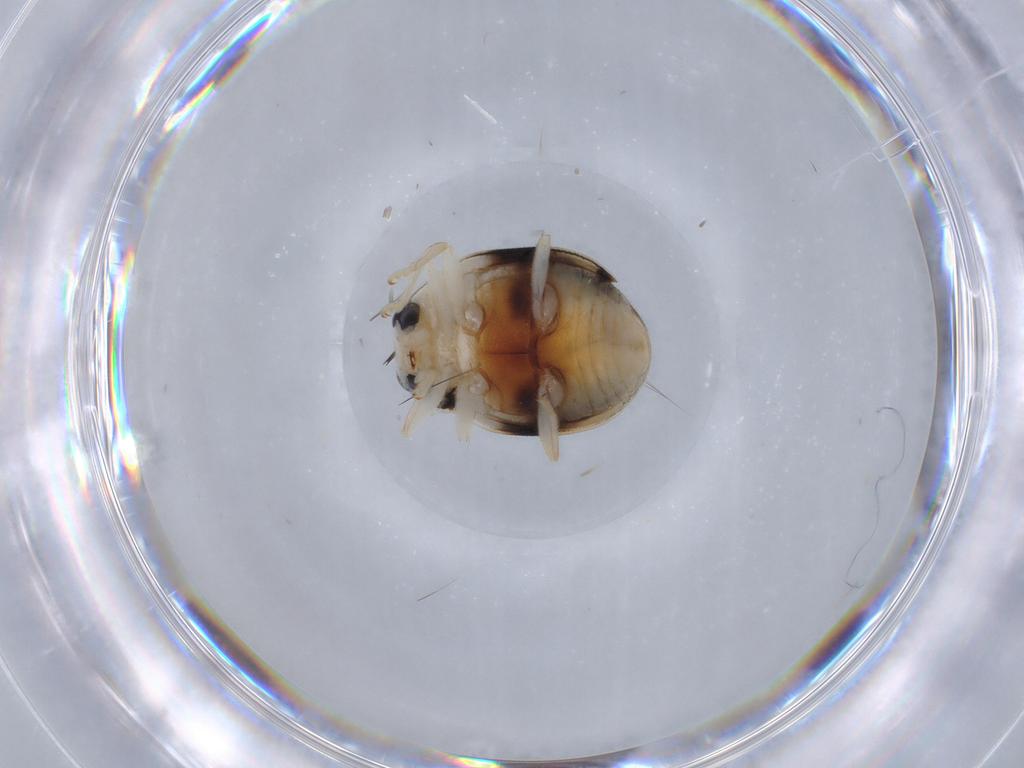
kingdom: Animalia
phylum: Arthropoda
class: Insecta
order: Coleoptera
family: Coccinellidae
